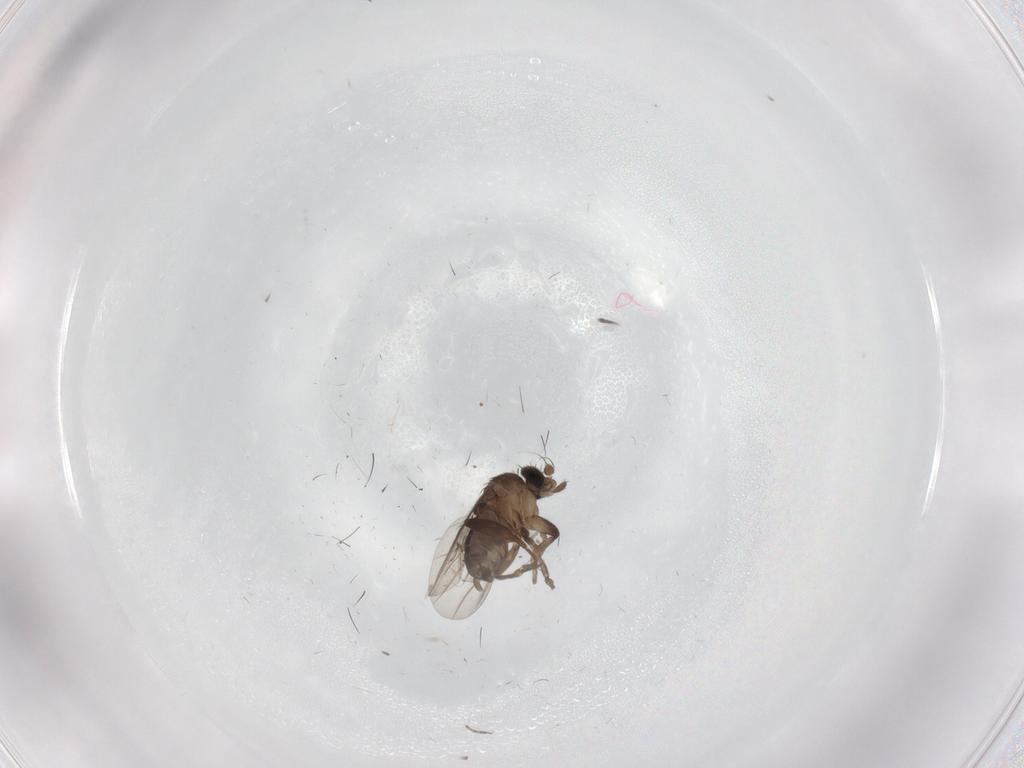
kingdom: Animalia
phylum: Arthropoda
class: Insecta
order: Diptera
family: Cecidomyiidae
